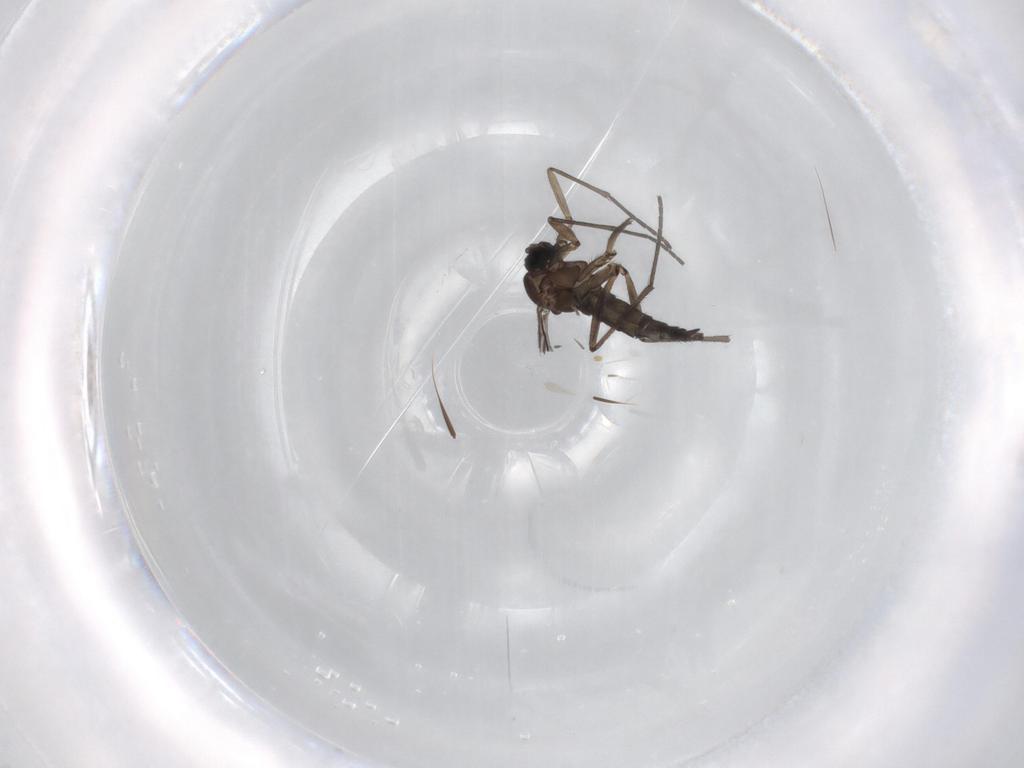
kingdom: Animalia
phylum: Arthropoda
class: Insecta
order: Diptera
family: Sciaridae
